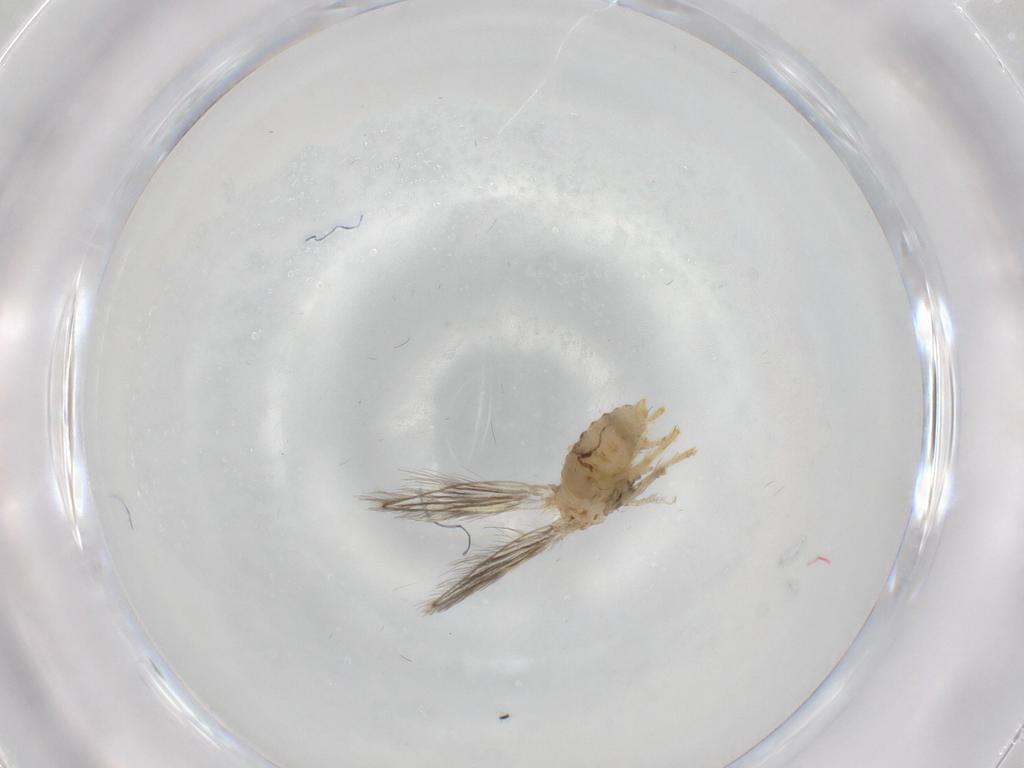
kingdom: Animalia
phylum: Arthropoda
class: Insecta
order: Diptera
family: Psychodidae
